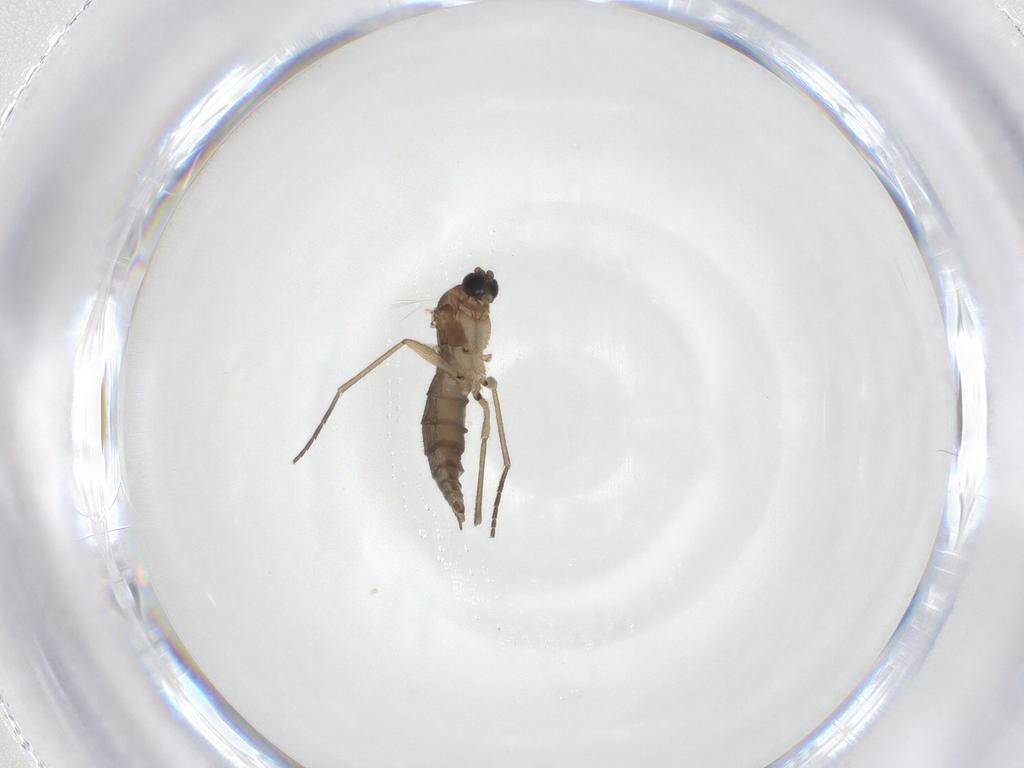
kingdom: Animalia
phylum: Arthropoda
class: Insecta
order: Diptera
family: Sciaridae
